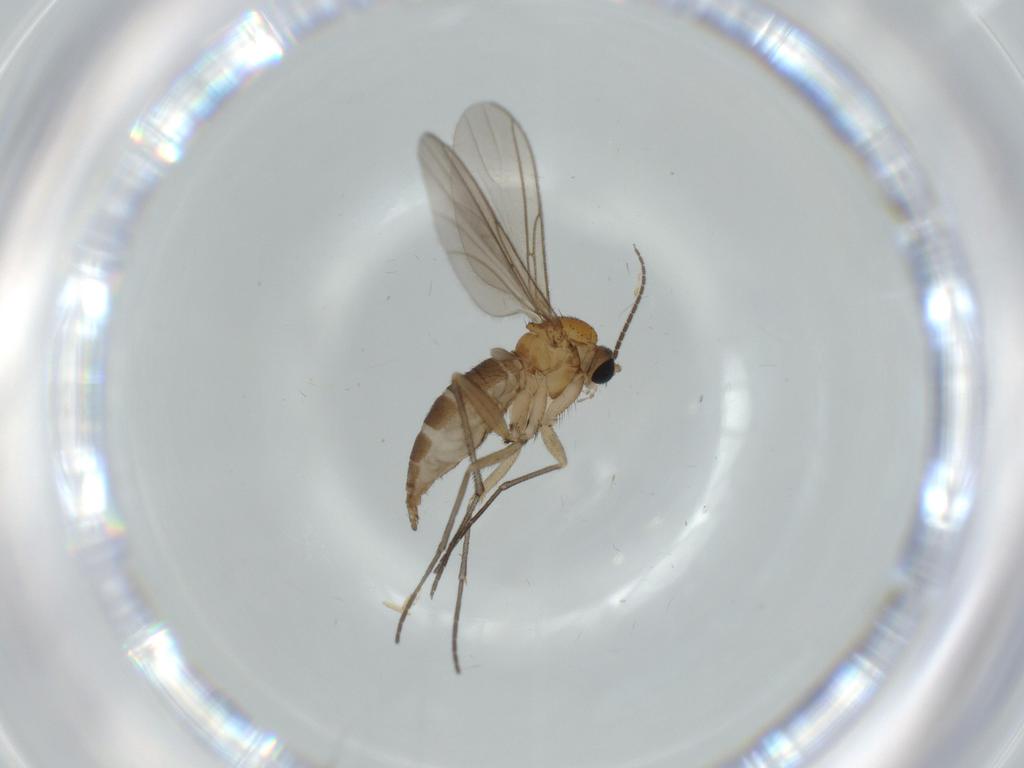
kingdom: Animalia
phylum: Arthropoda
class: Insecta
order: Diptera
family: Sciaridae
